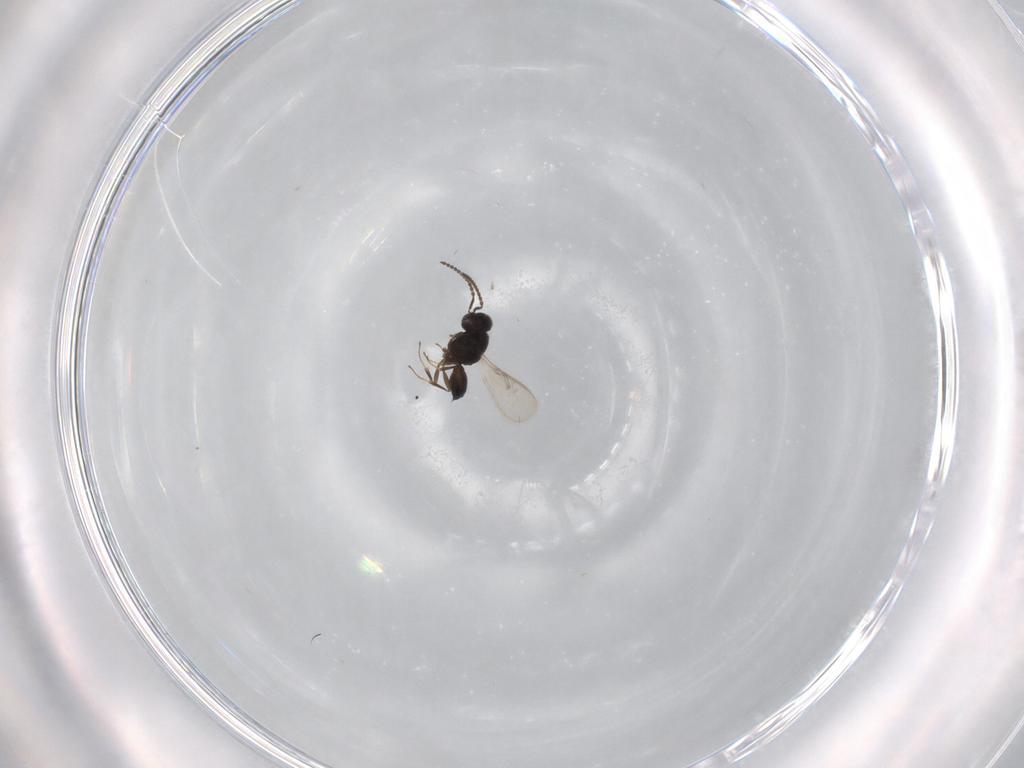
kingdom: Animalia
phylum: Arthropoda
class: Insecta
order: Hymenoptera
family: Scelionidae
